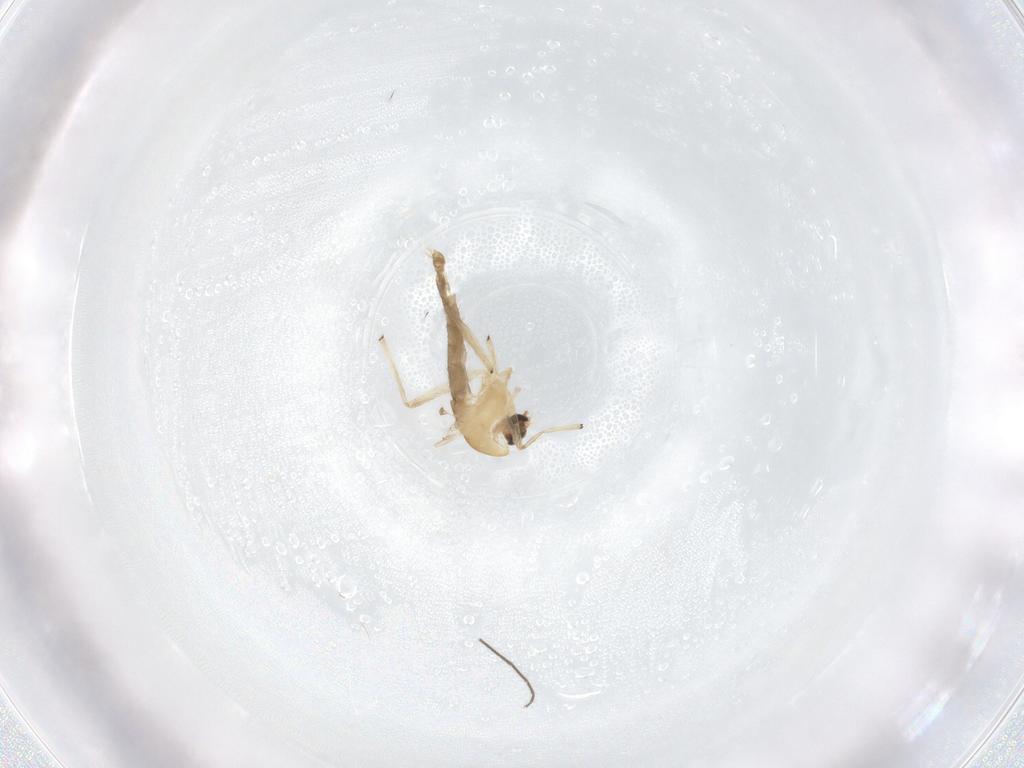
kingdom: Animalia
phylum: Arthropoda
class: Insecta
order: Diptera
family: Chironomidae
